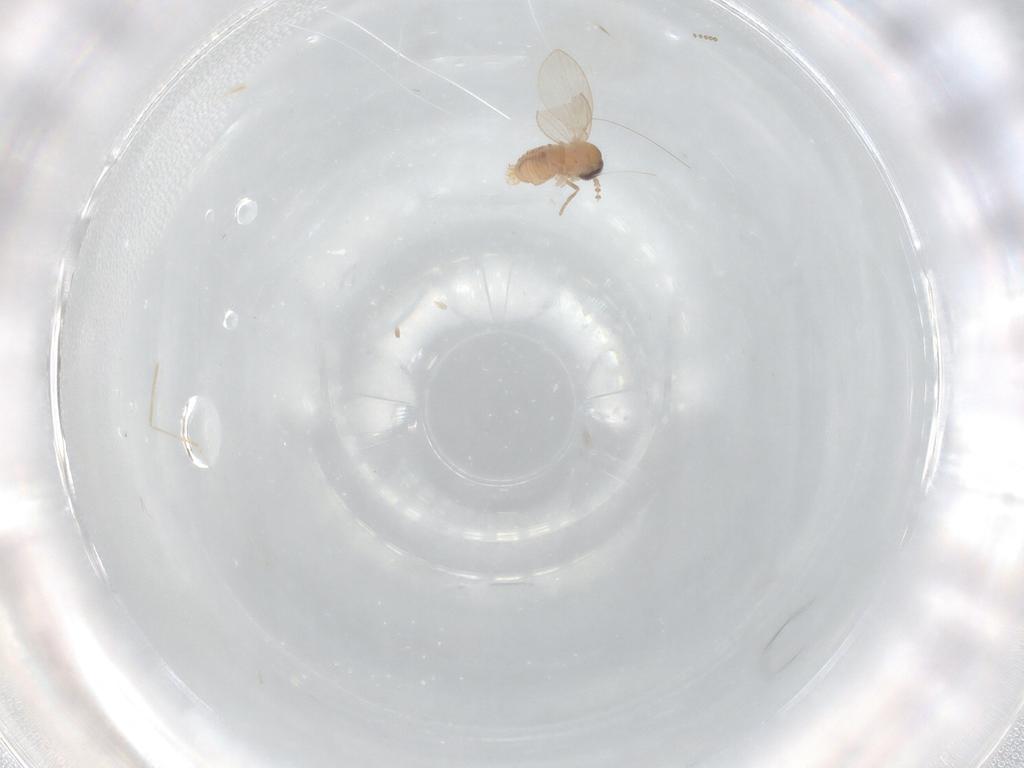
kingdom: Animalia
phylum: Arthropoda
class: Insecta
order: Diptera
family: Psychodidae
